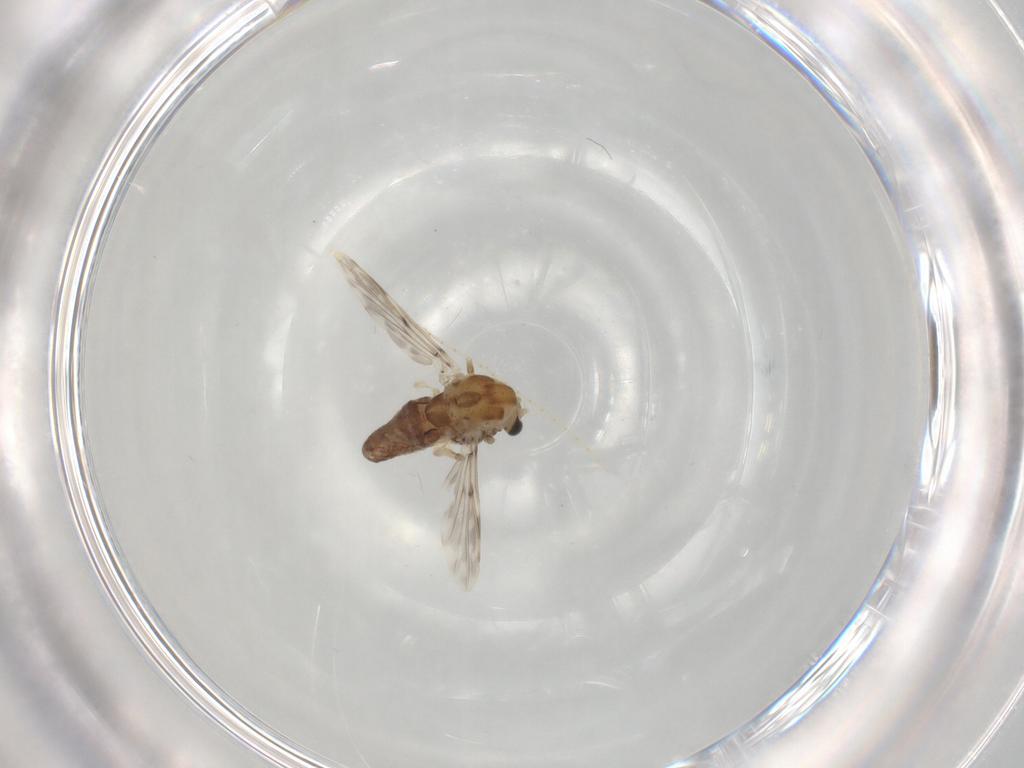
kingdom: Animalia
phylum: Arthropoda
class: Insecta
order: Diptera
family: Chironomidae
